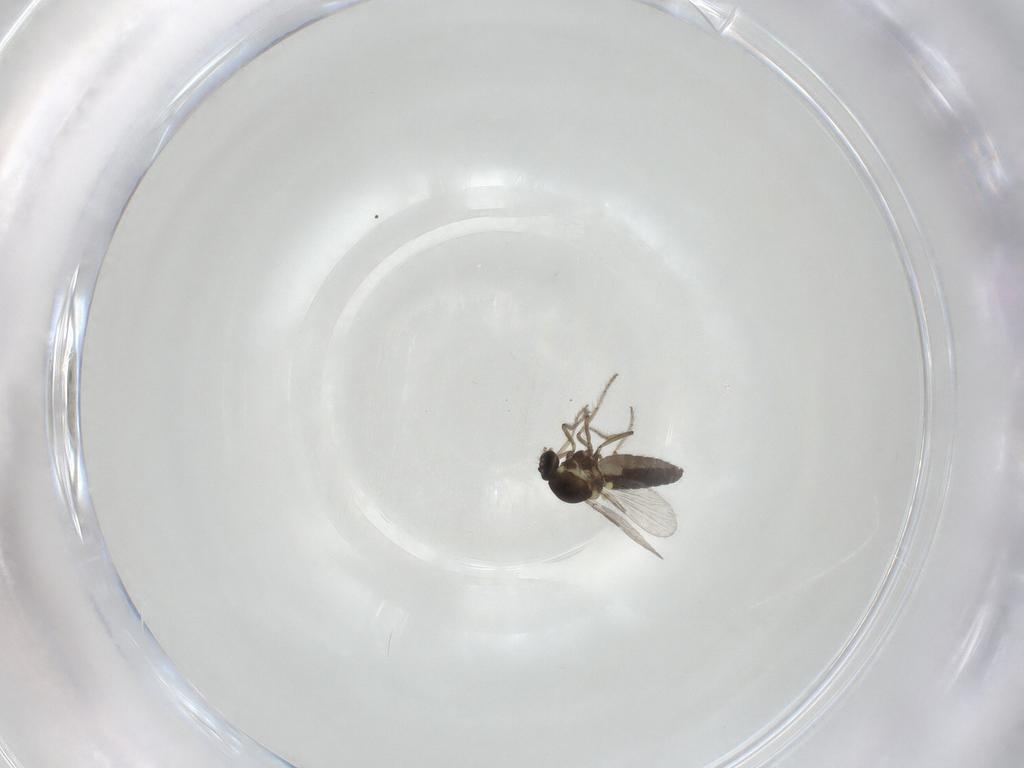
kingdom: Animalia
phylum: Arthropoda
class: Insecta
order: Diptera
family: Ceratopogonidae
